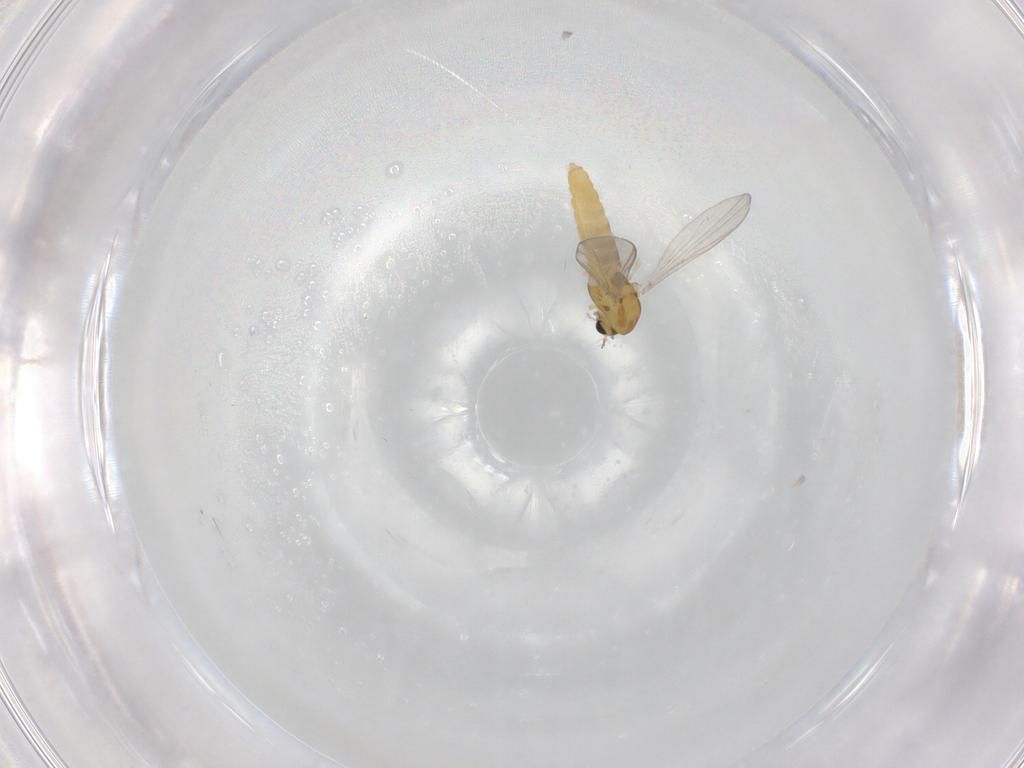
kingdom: Animalia
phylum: Arthropoda
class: Insecta
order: Diptera
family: Chironomidae
